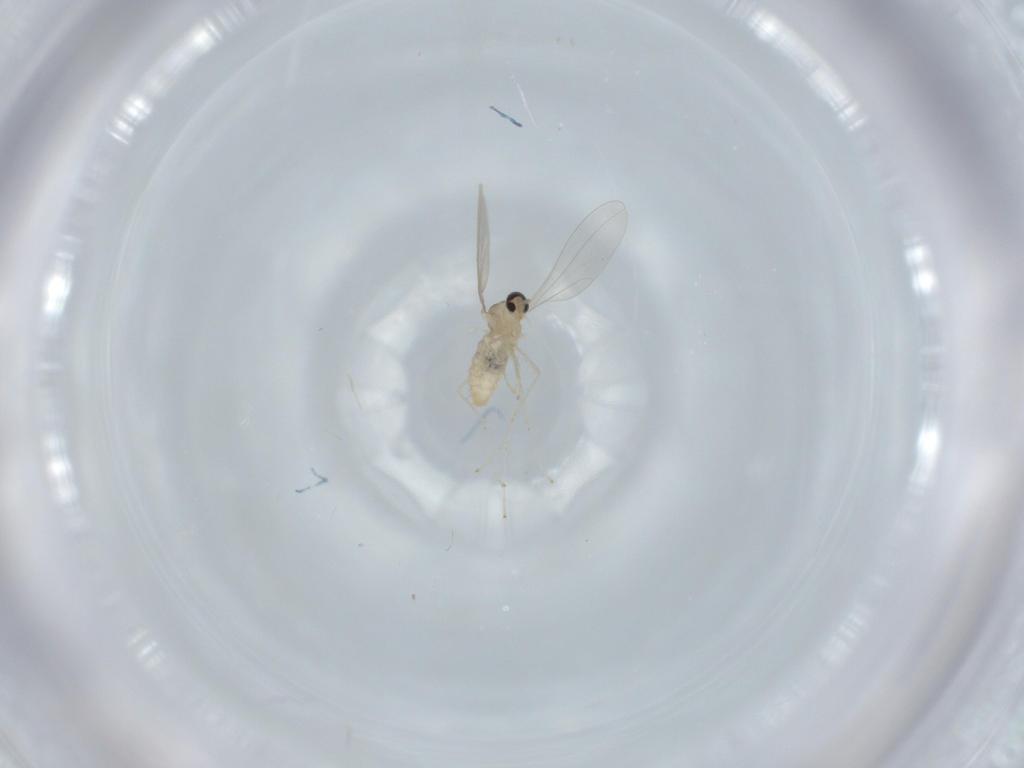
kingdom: Animalia
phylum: Arthropoda
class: Insecta
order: Diptera
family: Cecidomyiidae
